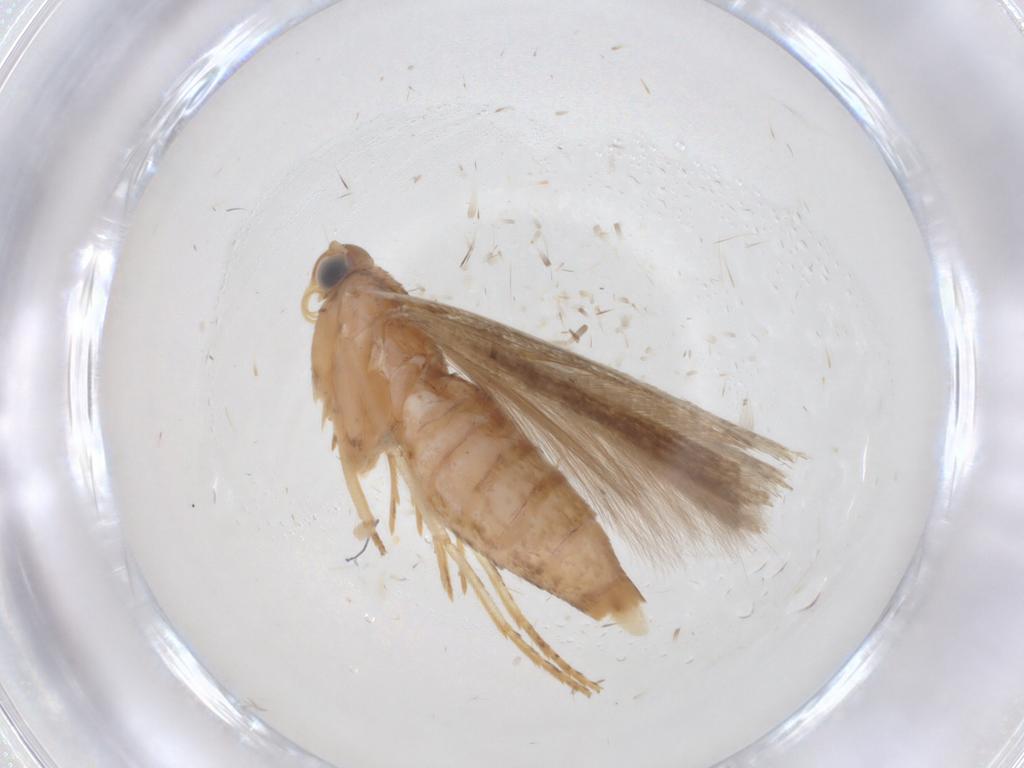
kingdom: Animalia
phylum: Arthropoda
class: Insecta
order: Lepidoptera
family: Gelechiidae
